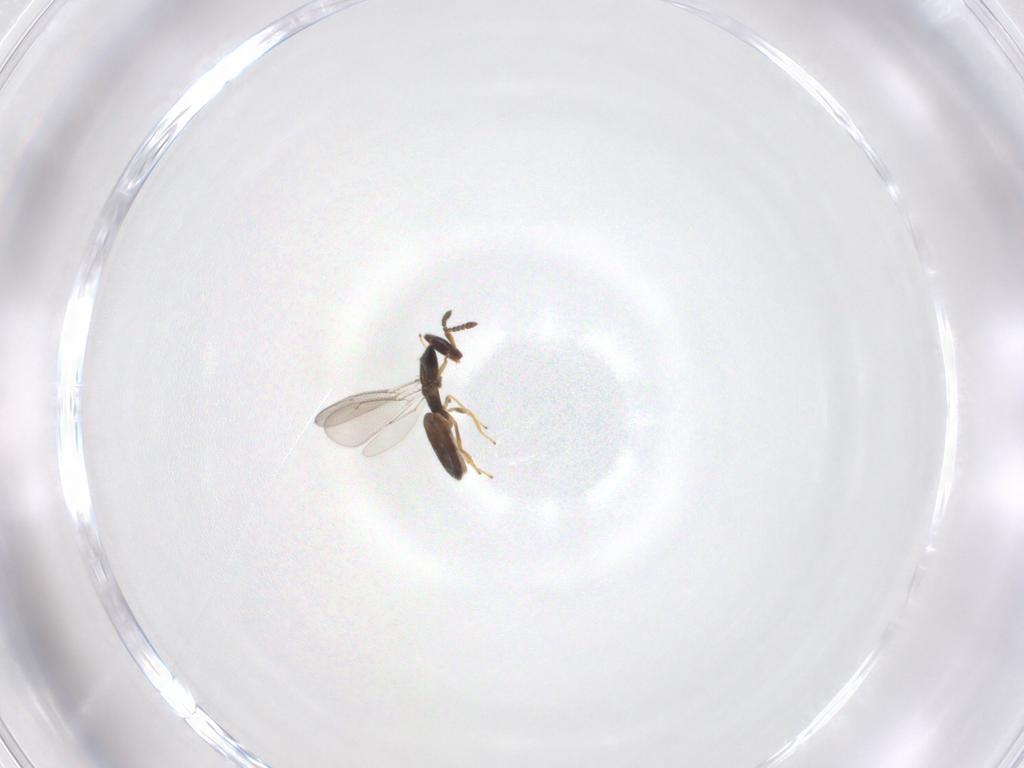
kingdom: Animalia
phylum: Arthropoda
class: Insecta
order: Hymenoptera
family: Eulophidae
